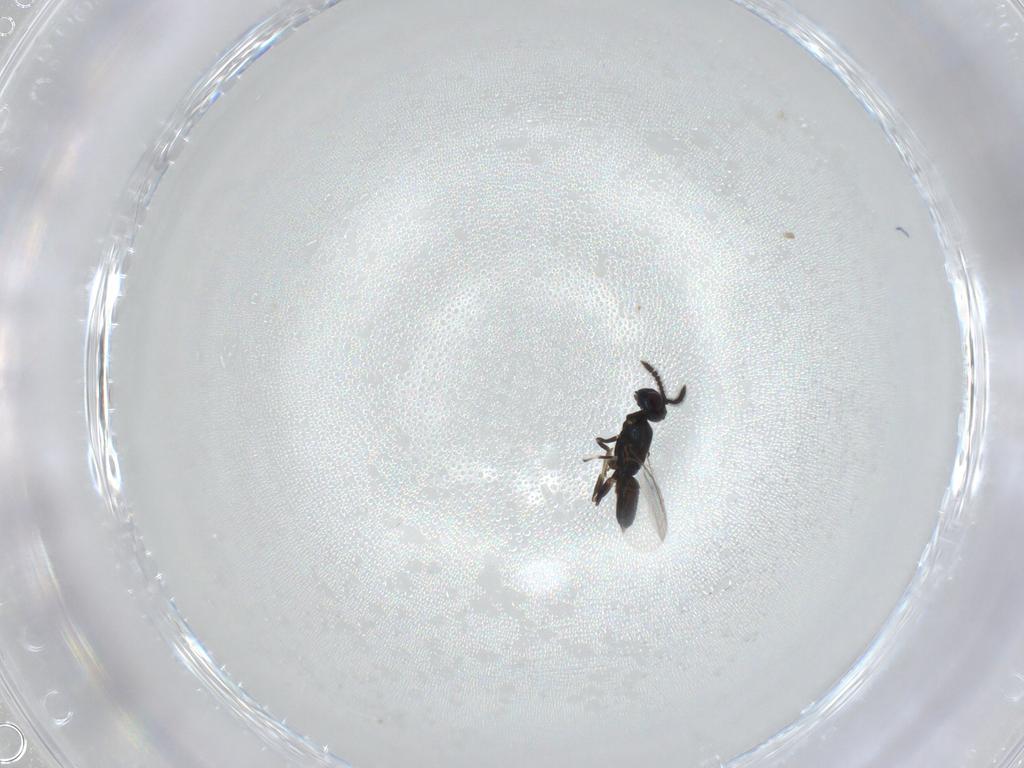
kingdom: Animalia
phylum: Arthropoda
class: Insecta
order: Hymenoptera
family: Eupelmidae
